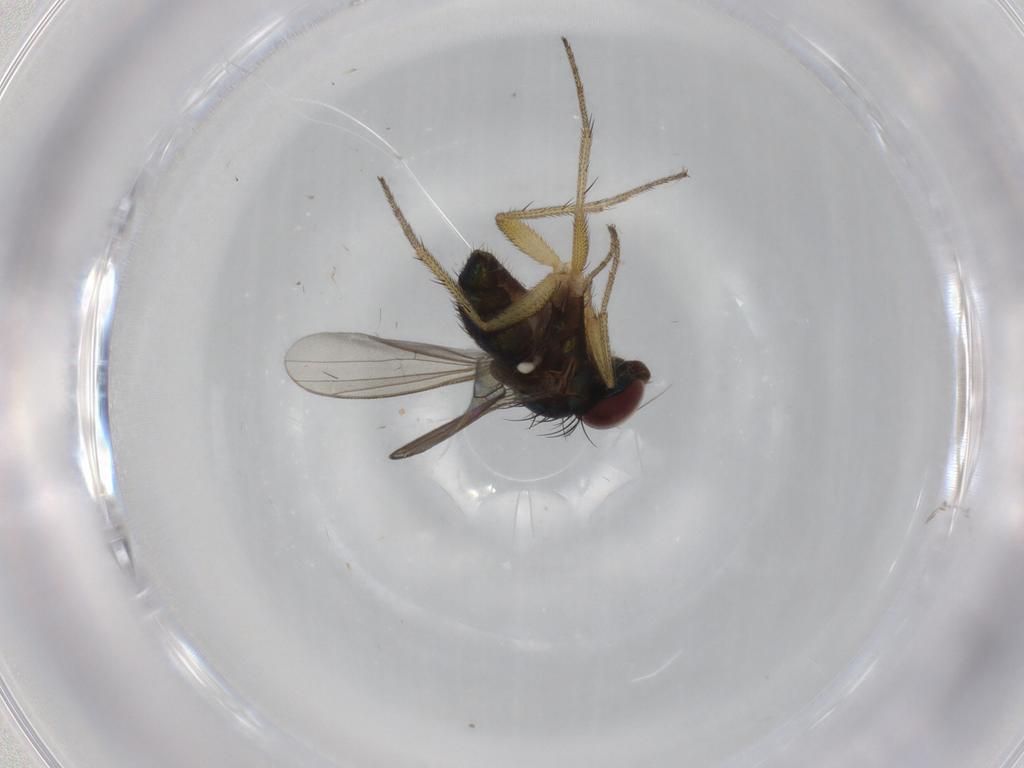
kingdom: Animalia
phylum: Arthropoda
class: Insecta
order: Diptera
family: Dolichopodidae
